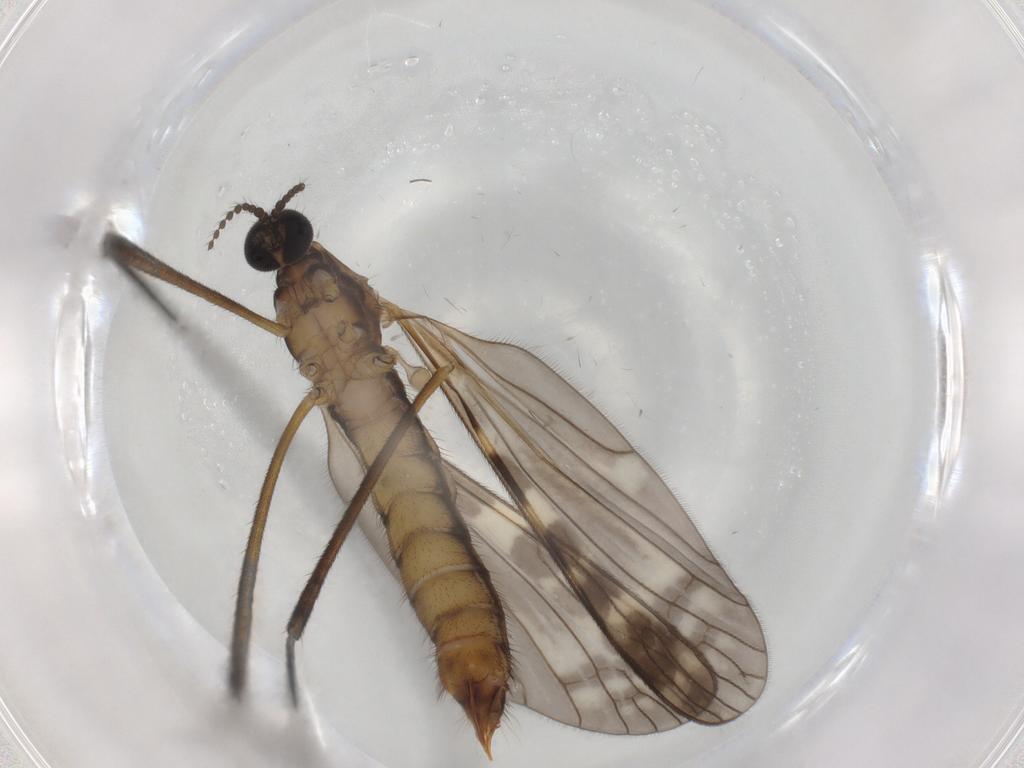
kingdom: Animalia
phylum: Arthropoda
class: Insecta
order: Diptera
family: Limoniidae
